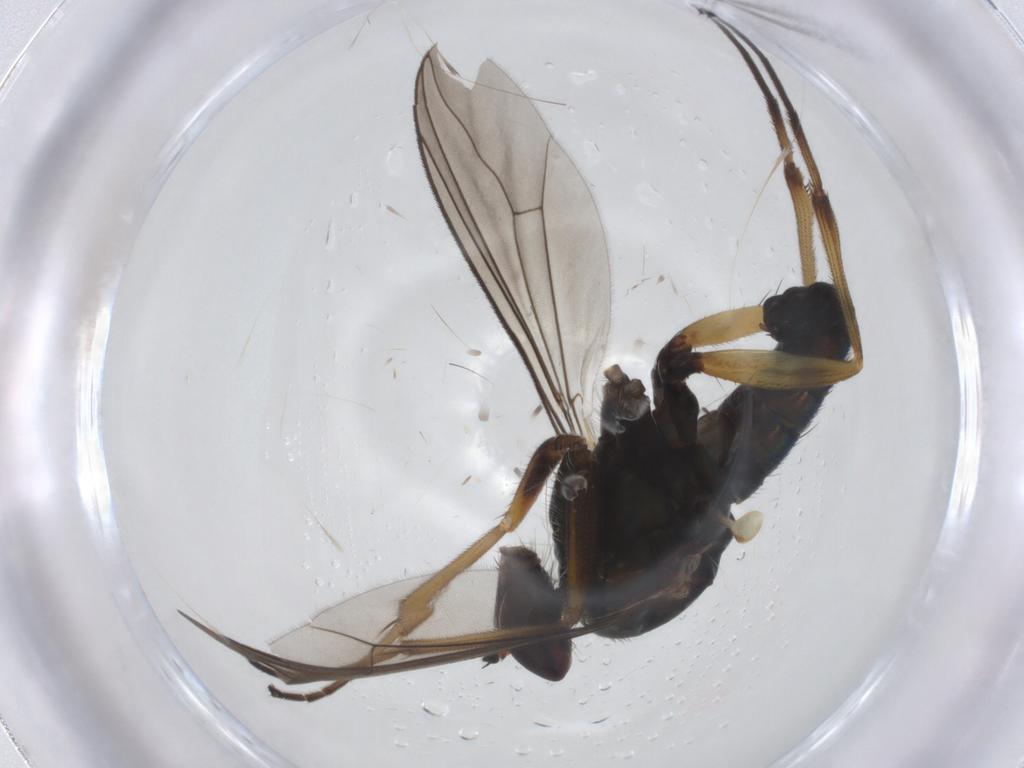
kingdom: Animalia
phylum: Arthropoda
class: Insecta
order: Diptera
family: Chironomidae
